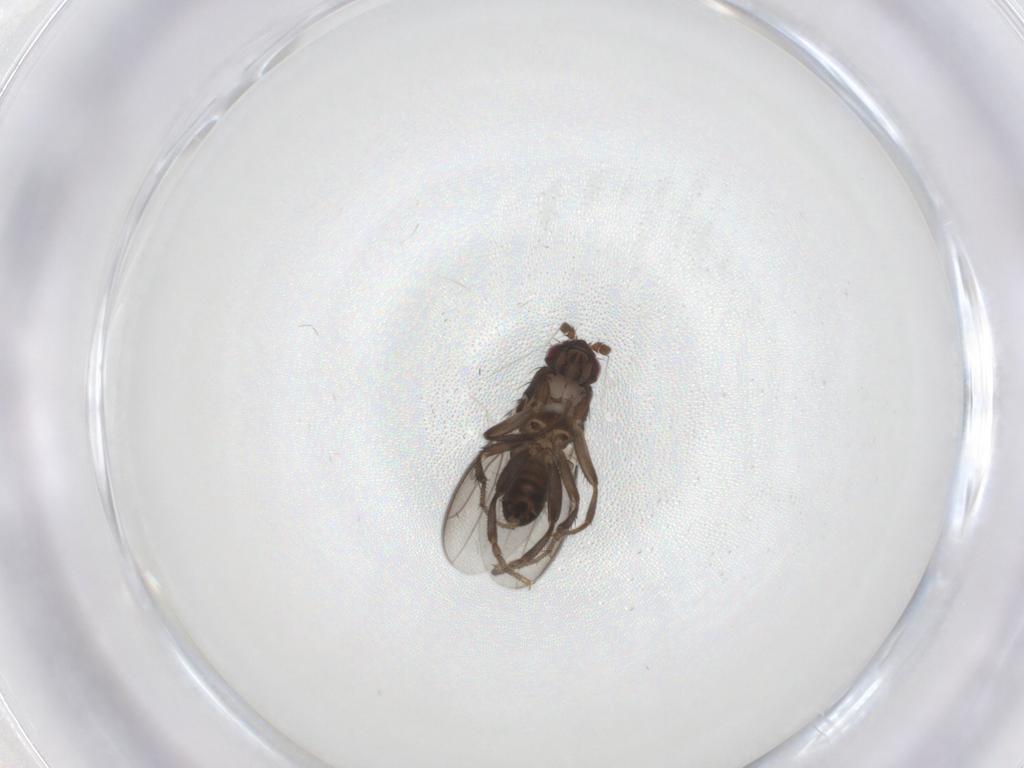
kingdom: Animalia
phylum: Arthropoda
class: Insecta
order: Diptera
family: Sphaeroceridae
